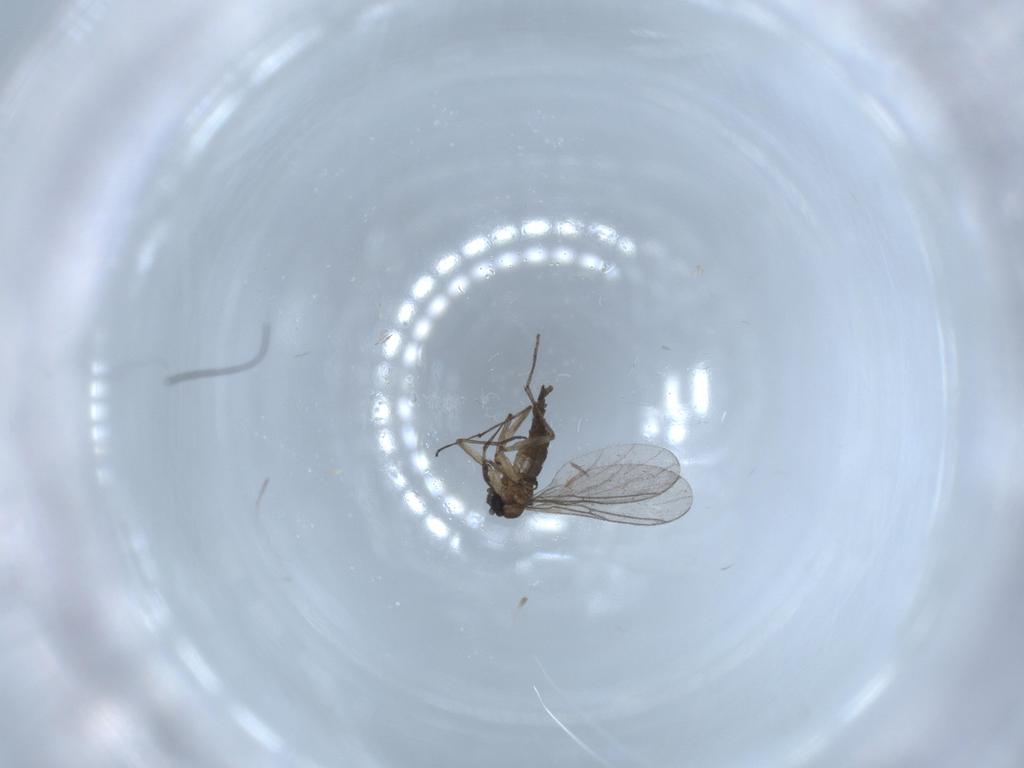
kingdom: Animalia
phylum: Arthropoda
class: Insecta
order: Diptera
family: Sciaridae
